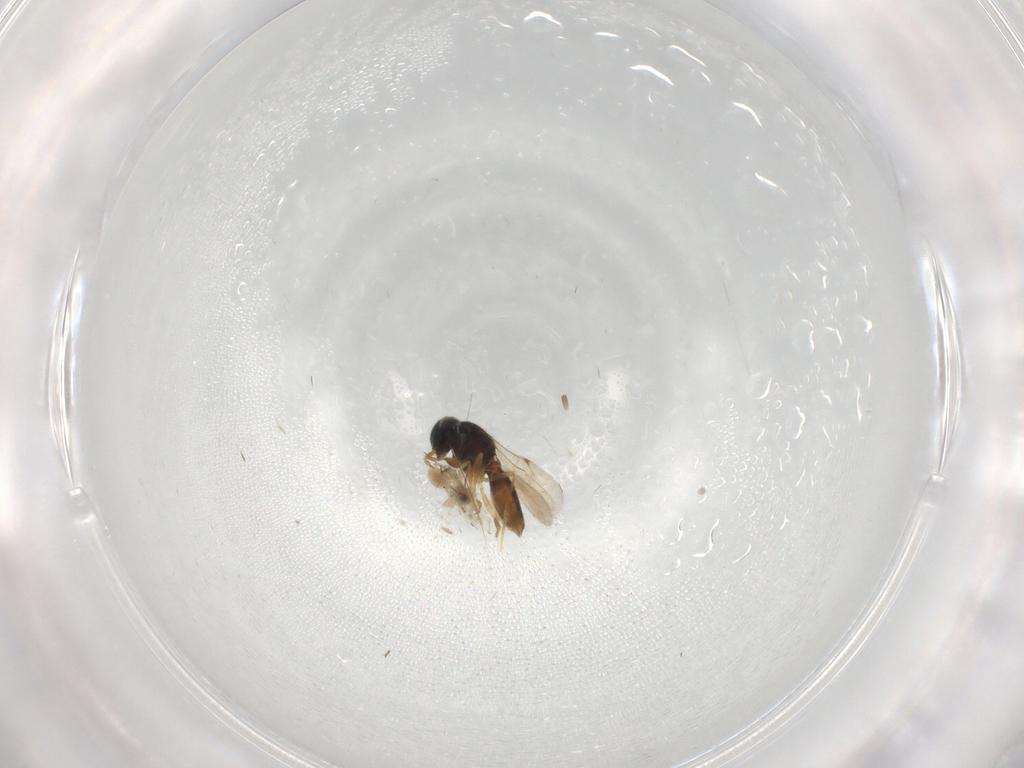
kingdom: Animalia
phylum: Arthropoda
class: Insecta
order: Hymenoptera
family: Scelionidae
